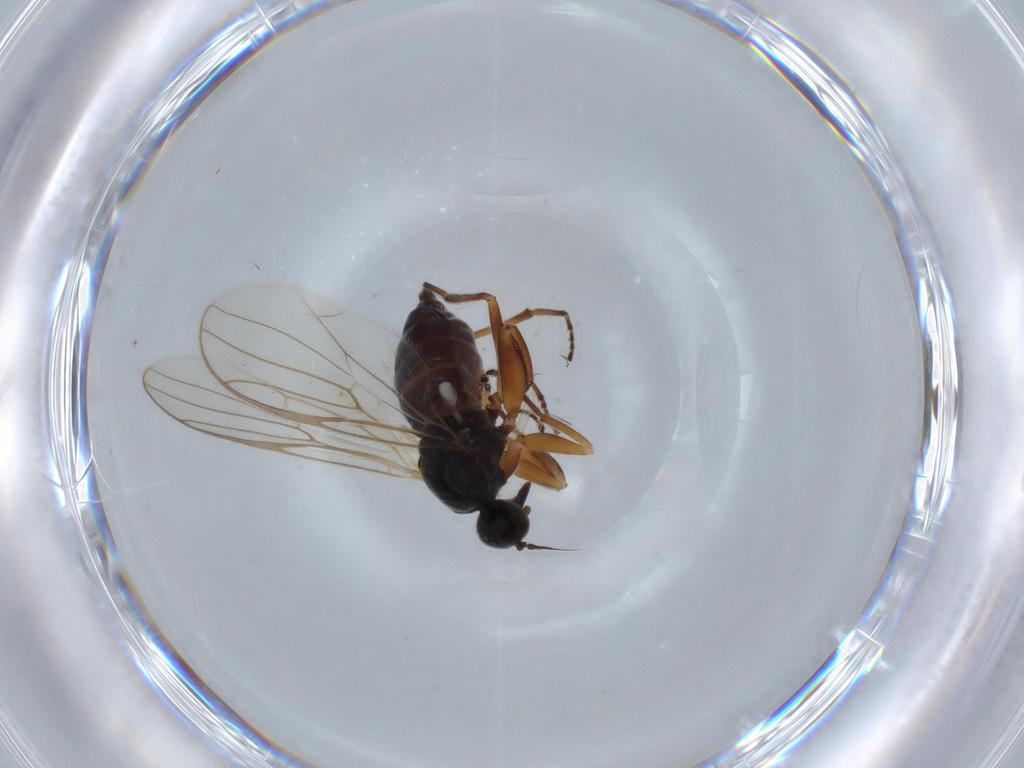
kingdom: Animalia
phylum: Arthropoda
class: Insecta
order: Diptera
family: Hybotidae
